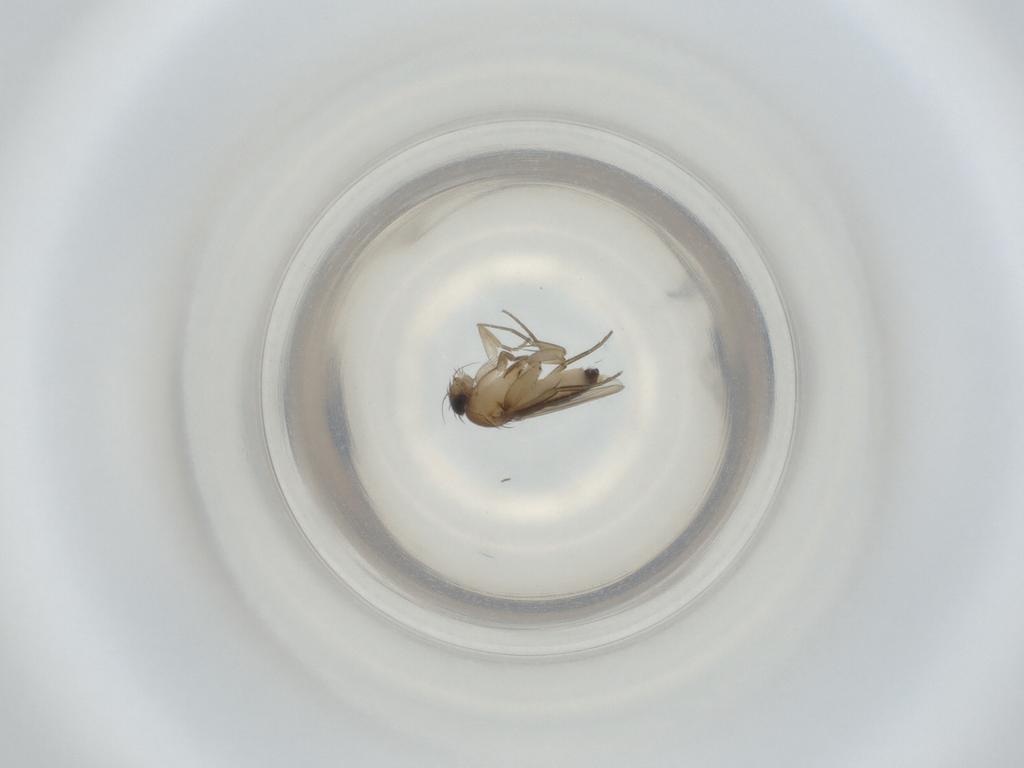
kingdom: Animalia
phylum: Arthropoda
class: Insecta
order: Diptera
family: Phoridae
